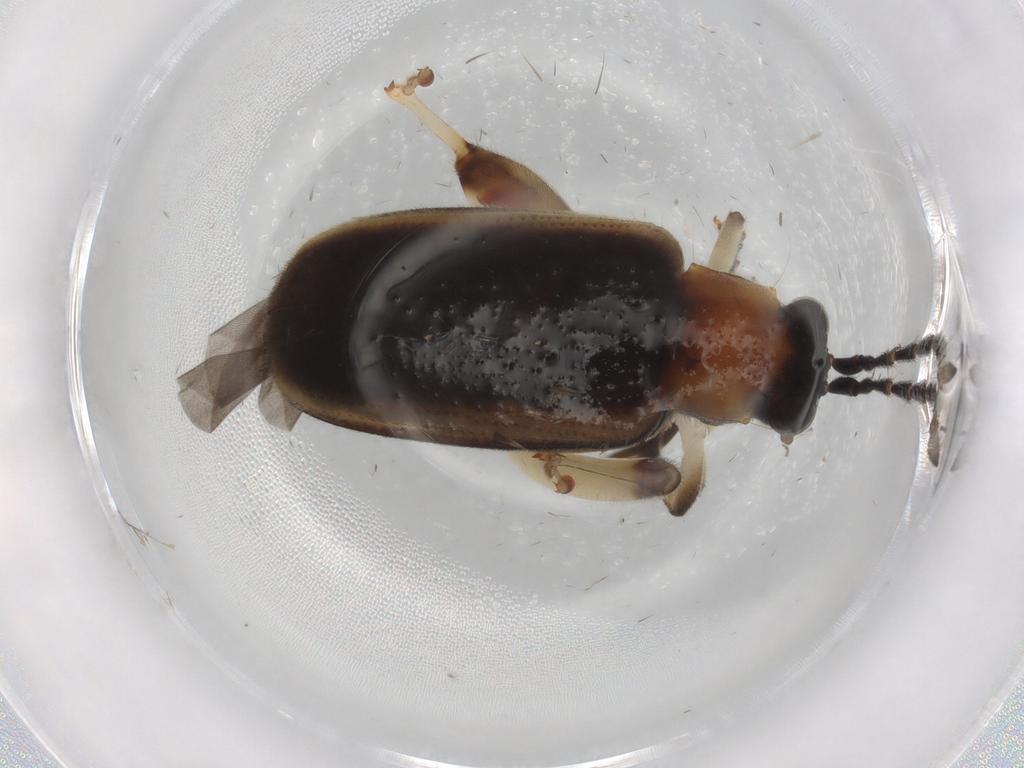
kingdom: Animalia
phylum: Arthropoda
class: Insecta
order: Coleoptera
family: Chrysomelidae
